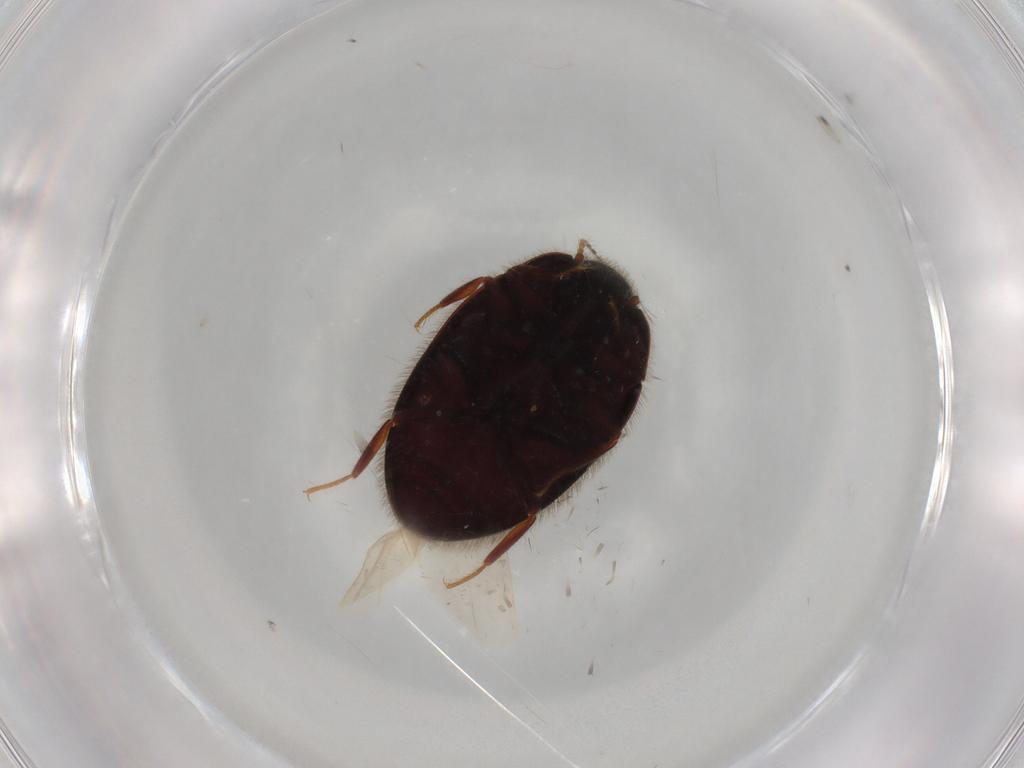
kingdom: Animalia
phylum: Arthropoda
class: Insecta
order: Coleoptera
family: Limnichidae
